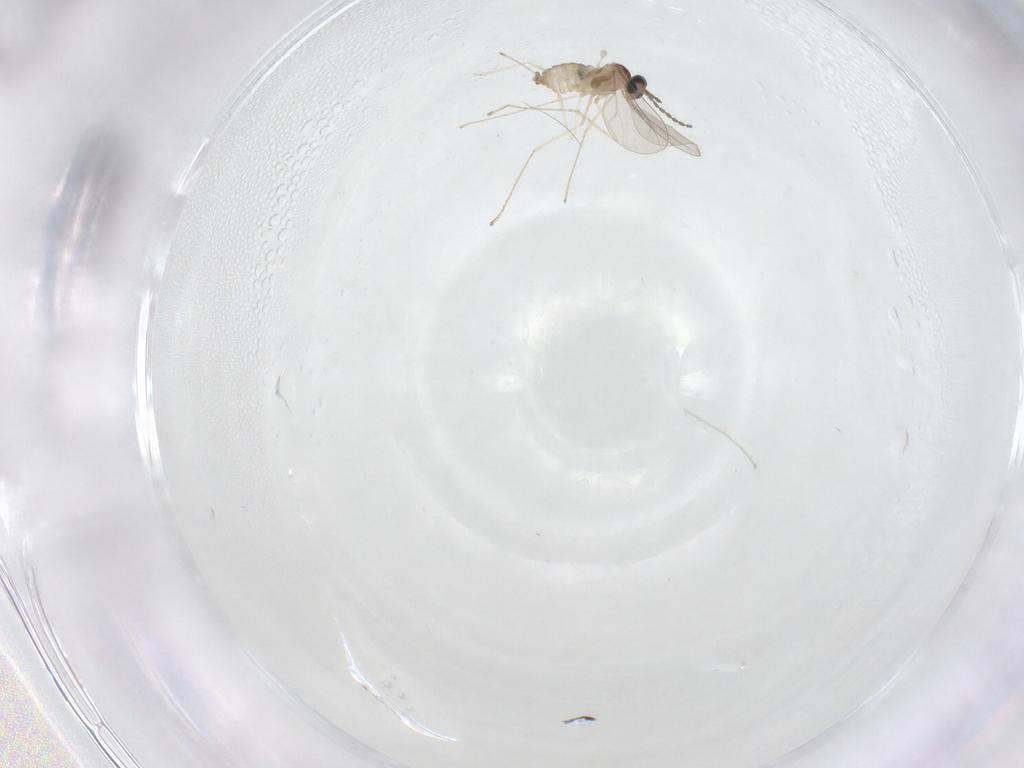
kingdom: Animalia
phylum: Arthropoda
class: Insecta
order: Diptera
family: Cecidomyiidae
